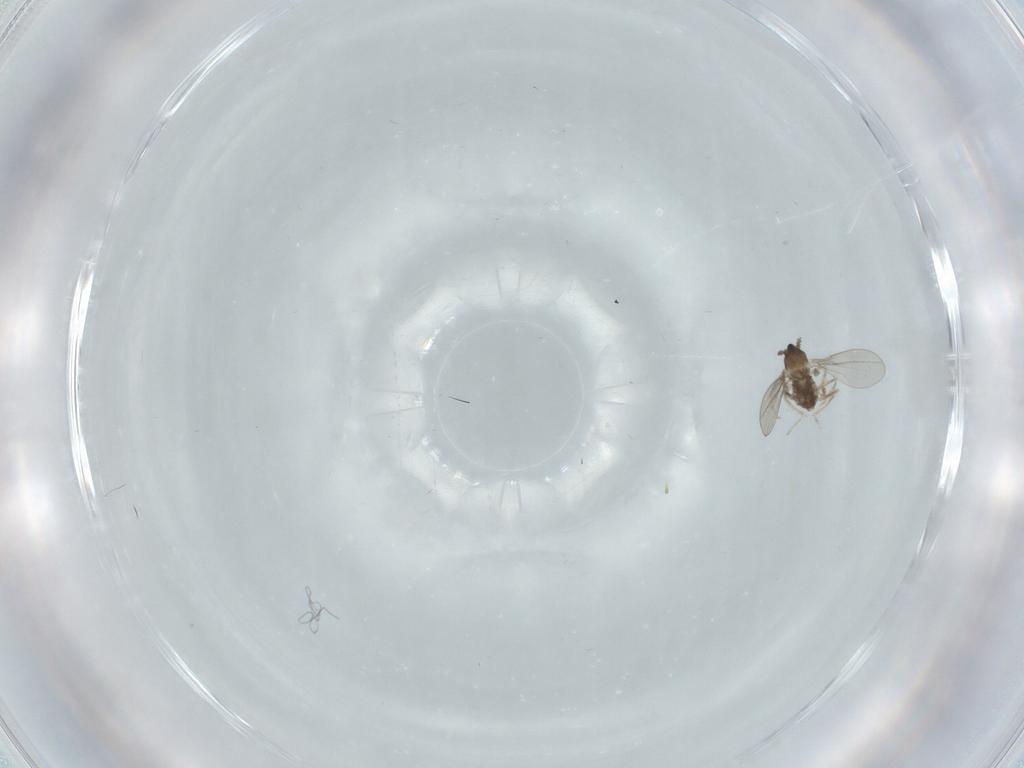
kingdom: Animalia
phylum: Arthropoda
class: Insecta
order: Diptera
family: Cecidomyiidae
